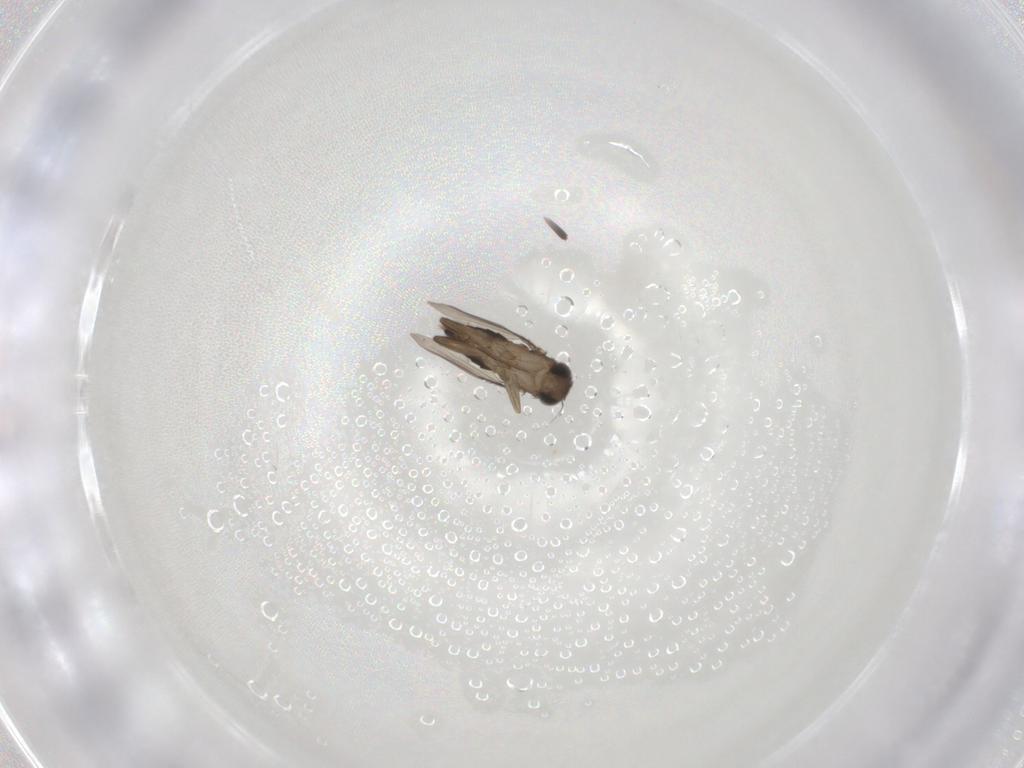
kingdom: Animalia
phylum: Arthropoda
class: Insecta
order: Diptera
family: Phoridae
